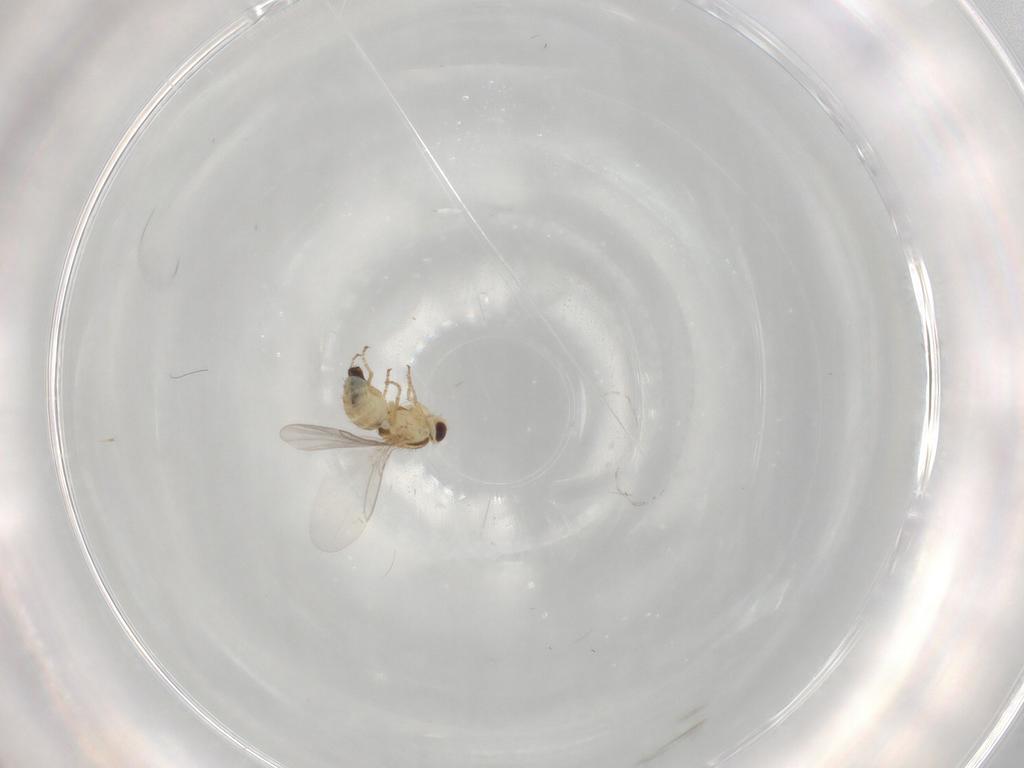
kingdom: Animalia
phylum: Arthropoda
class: Insecta
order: Diptera
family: Agromyzidae
